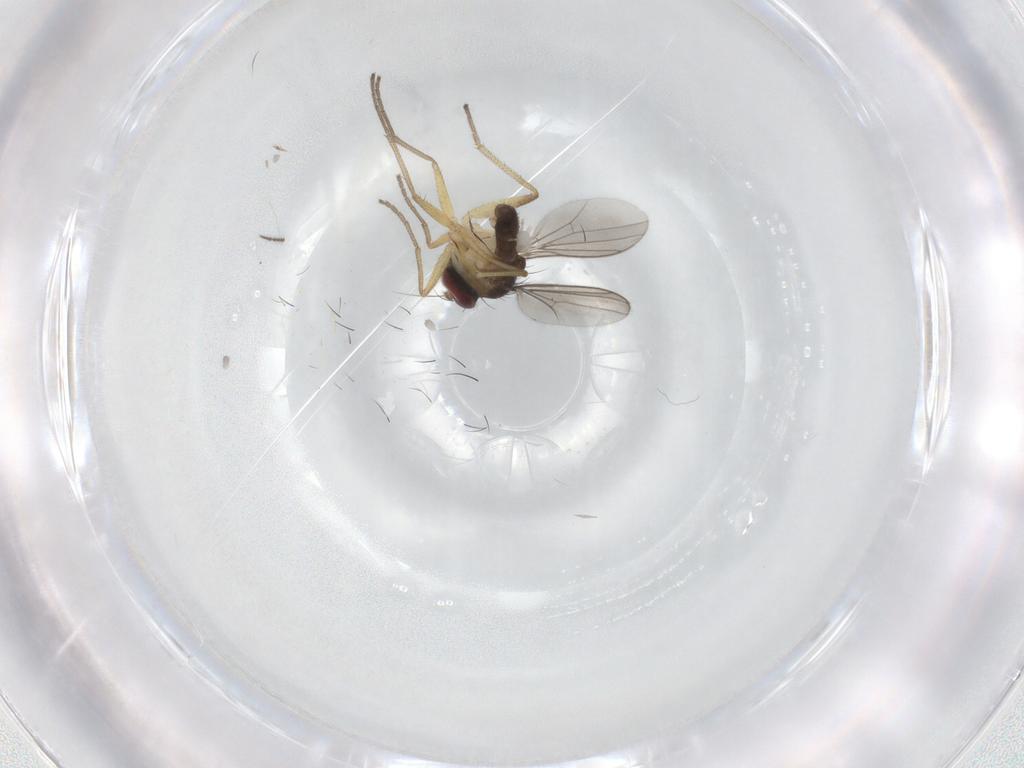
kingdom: Animalia
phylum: Arthropoda
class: Insecta
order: Diptera
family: Dolichopodidae
